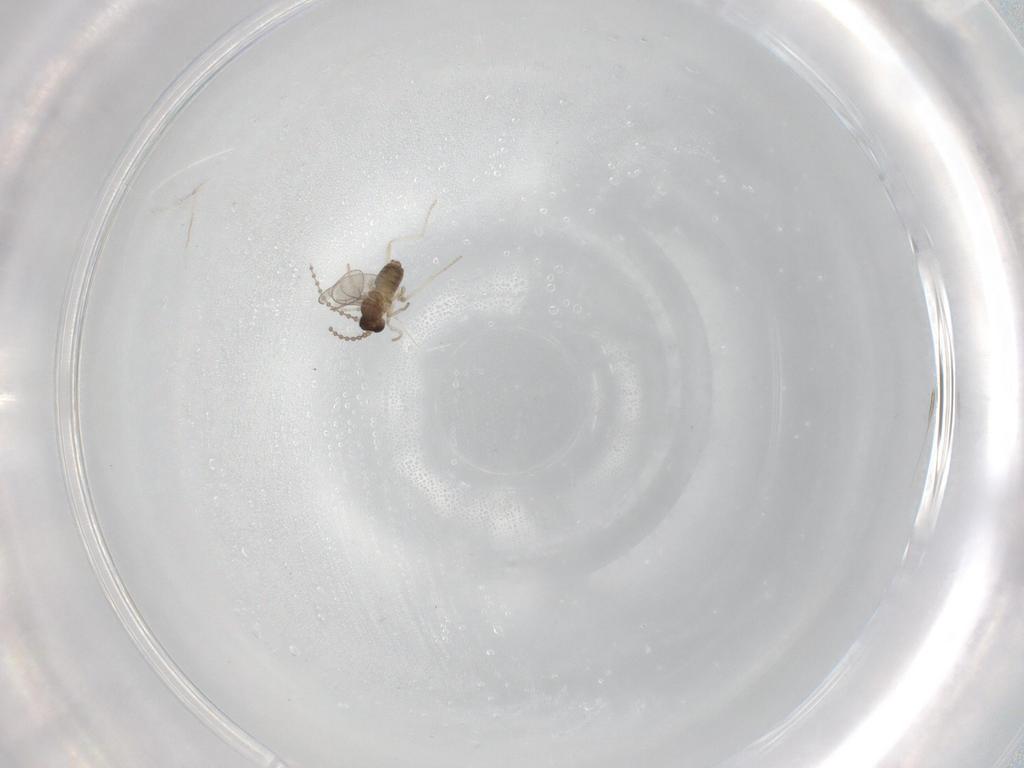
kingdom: Animalia
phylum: Arthropoda
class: Insecta
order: Diptera
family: Cecidomyiidae
